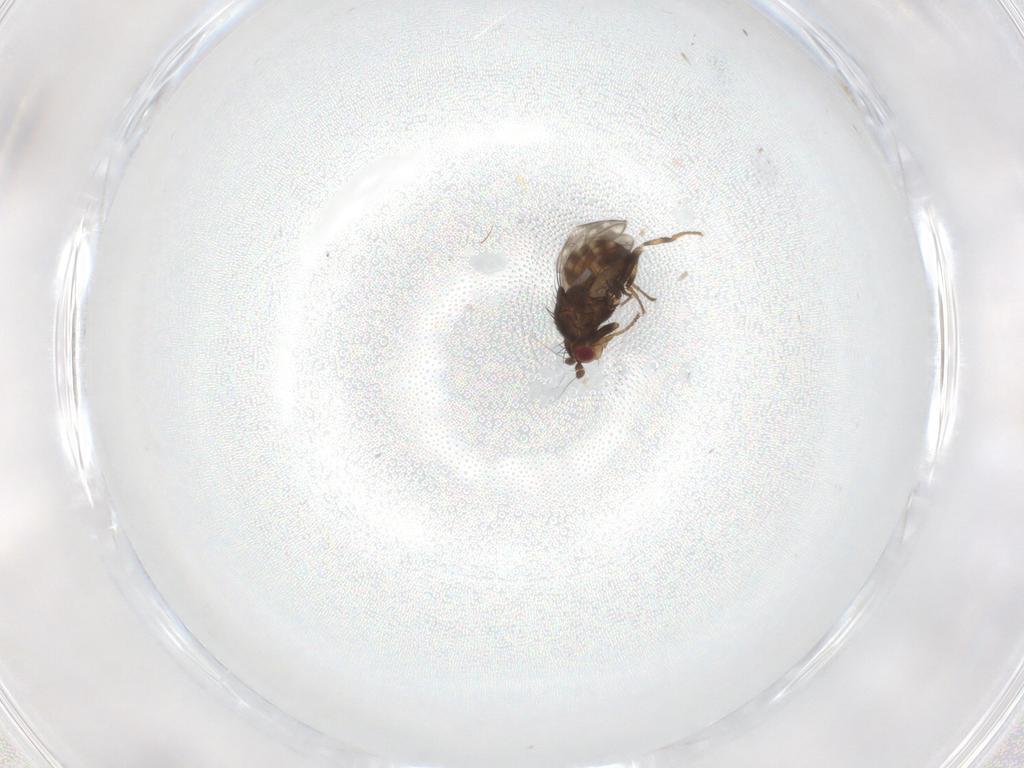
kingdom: Animalia
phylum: Arthropoda
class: Insecta
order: Diptera
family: Sphaeroceridae
